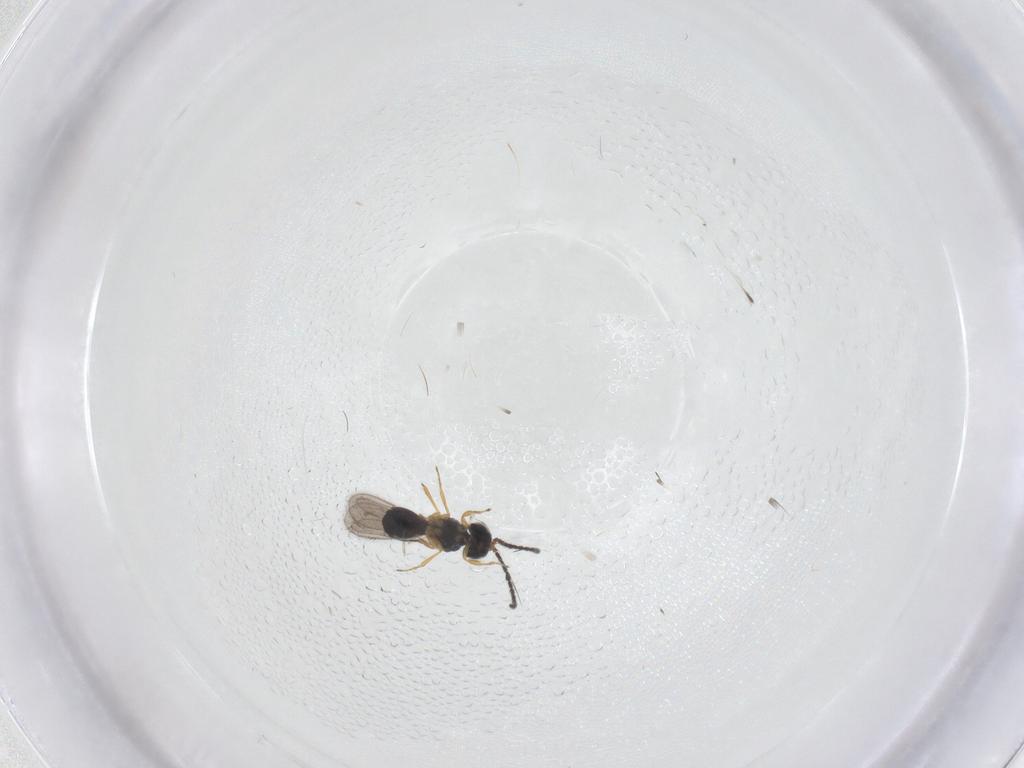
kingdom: Animalia
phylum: Arthropoda
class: Insecta
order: Hymenoptera
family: Scelionidae
